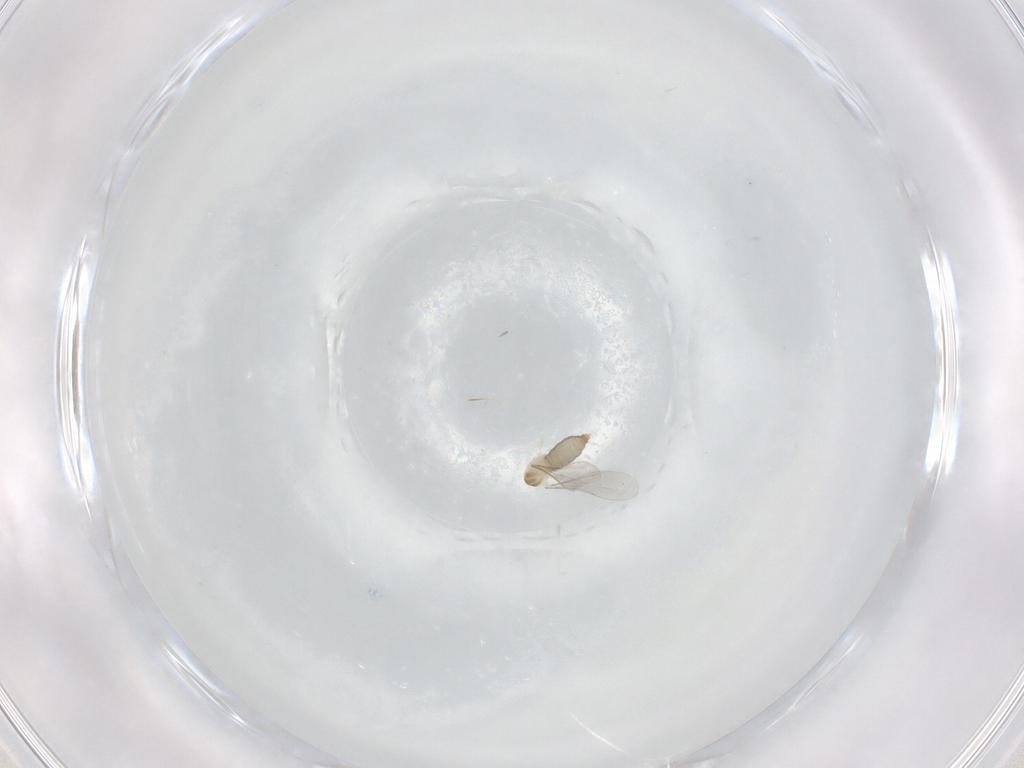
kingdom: Animalia
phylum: Arthropoda
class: Insecta
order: Diptera
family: Cecidomyiidae
